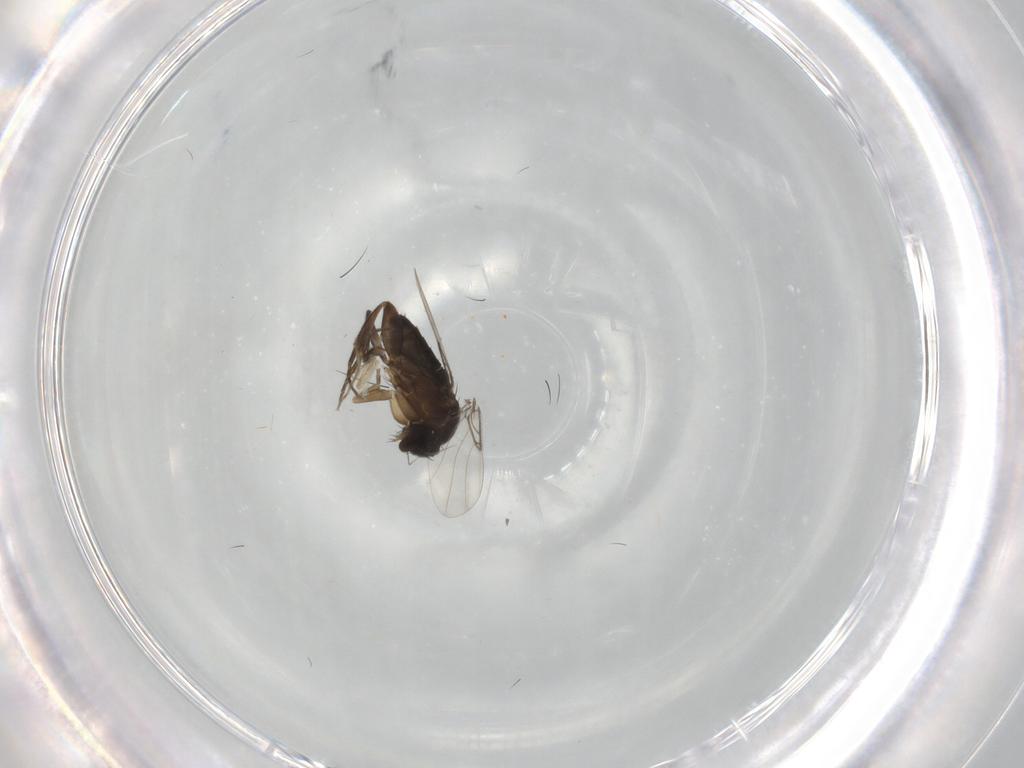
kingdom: Animalia
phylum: Arthropoda
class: Insecta
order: Diptera
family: Phoridae
